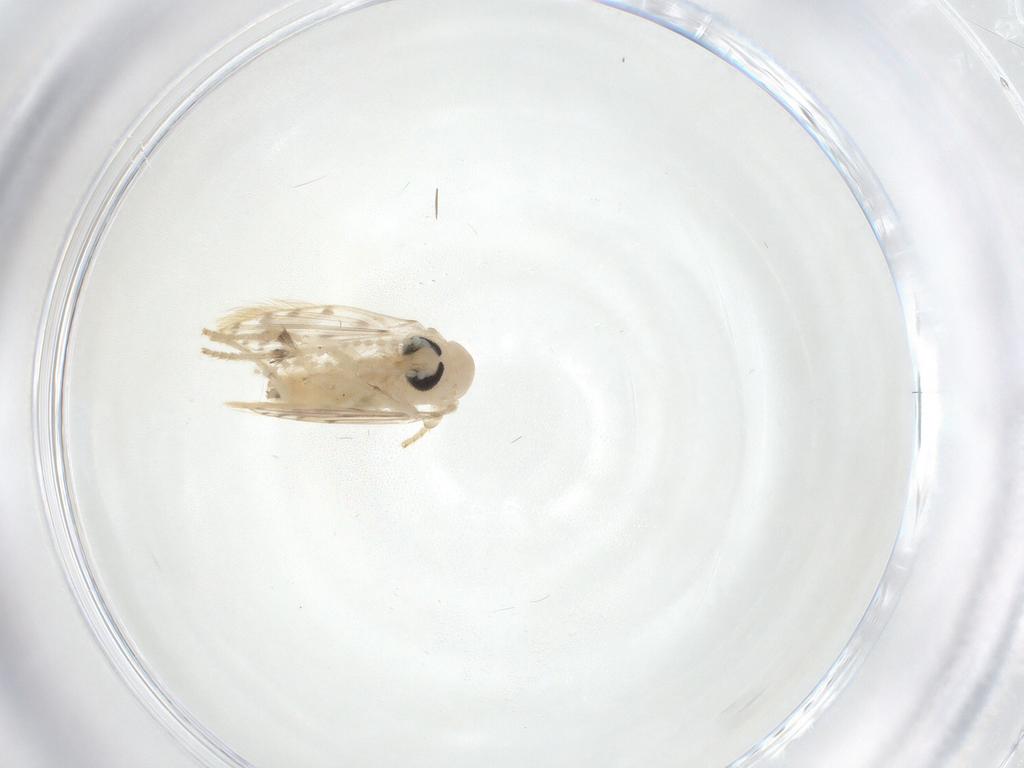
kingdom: Animalia
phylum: Arthropoda
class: Insecta
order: Diptera
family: Psychodidae
